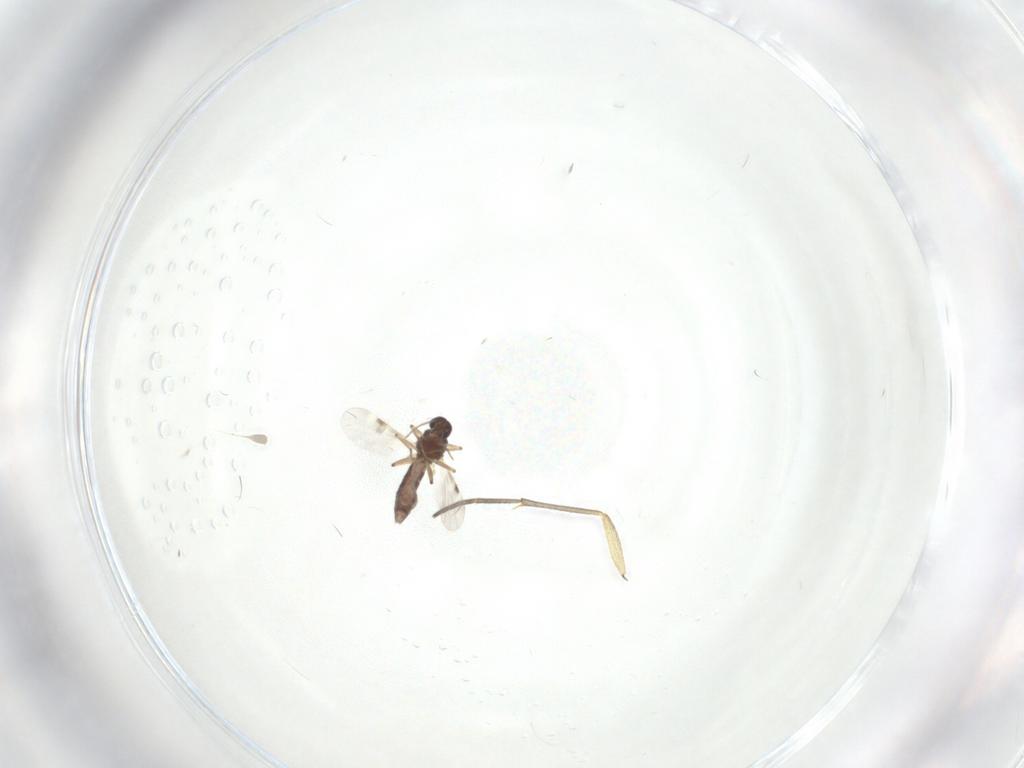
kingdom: Animalia
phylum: Arthropoda
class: Insecta
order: Diptera
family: Ceratopogonidae
